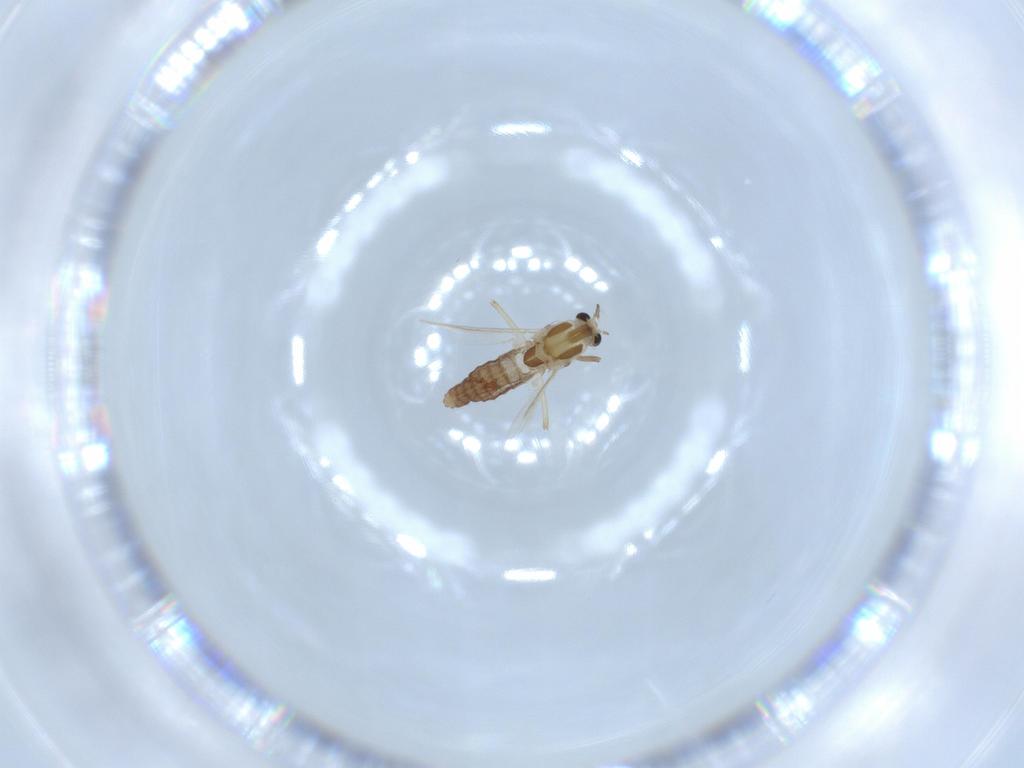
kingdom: Animalia
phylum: Arthropoda
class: Insecta
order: Diptera
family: Chironomidae
